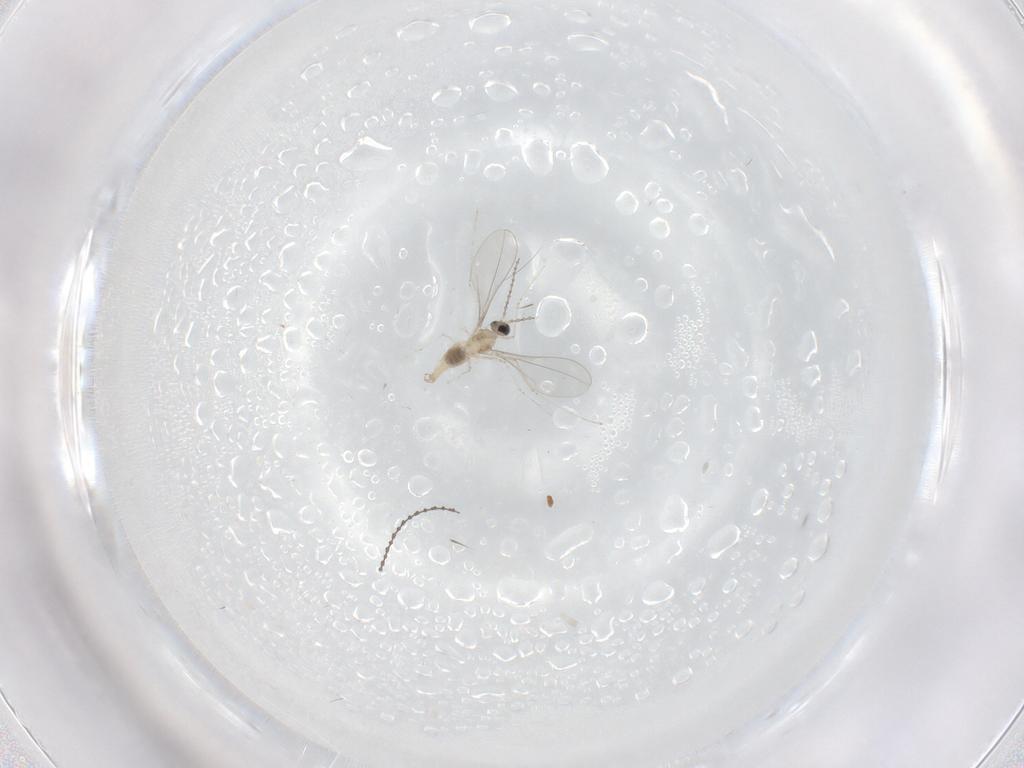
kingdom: Animalia
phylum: Arthropoda
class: Insecta
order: Diptera
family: Cecidomyiidae
